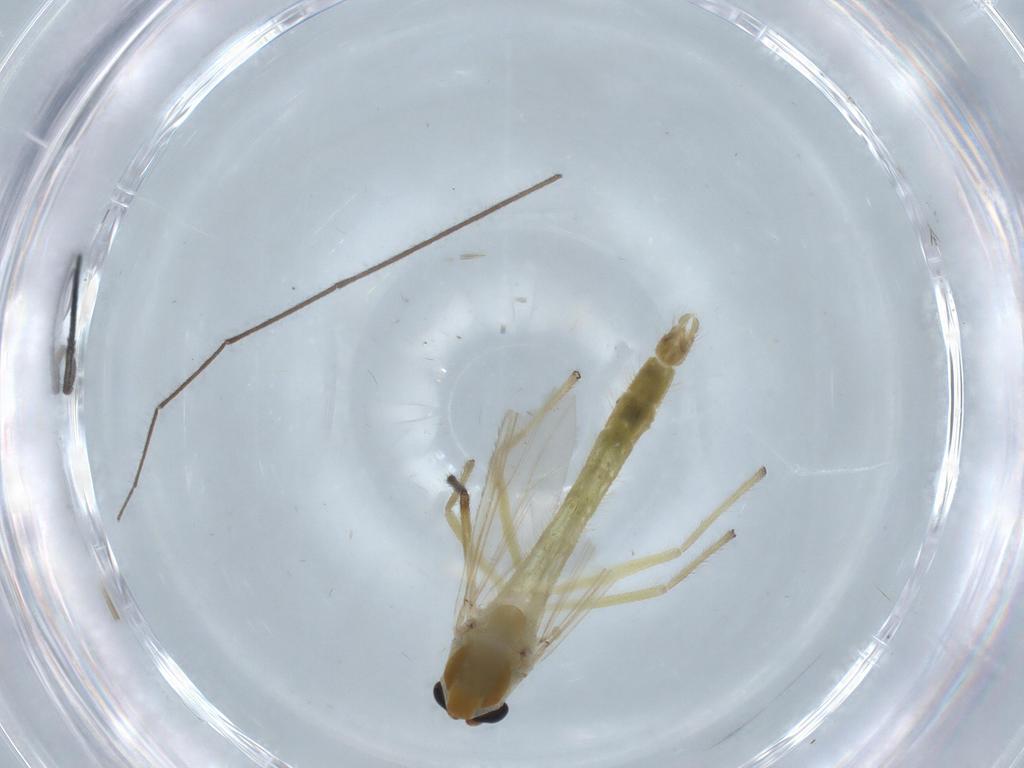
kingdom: Animalia
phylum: Arthropoda
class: Insecta
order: Diptera
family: Chironomidae
